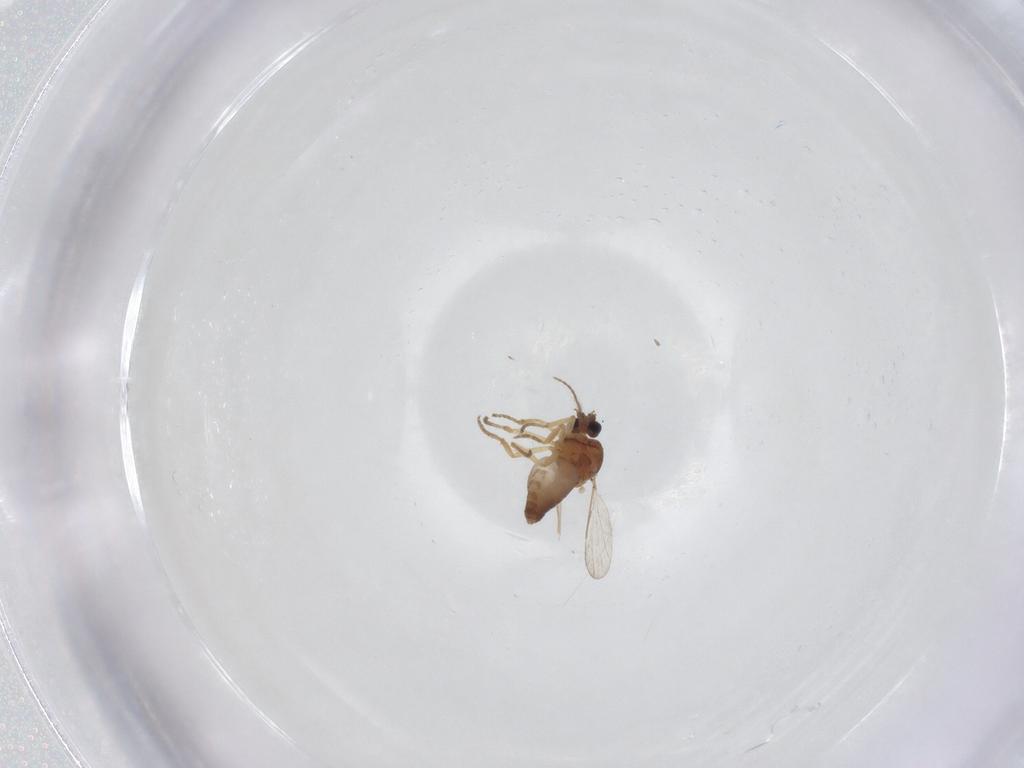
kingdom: Animalia
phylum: Arthropoda
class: Insecta
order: Diptera
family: Ceratopogonidae
